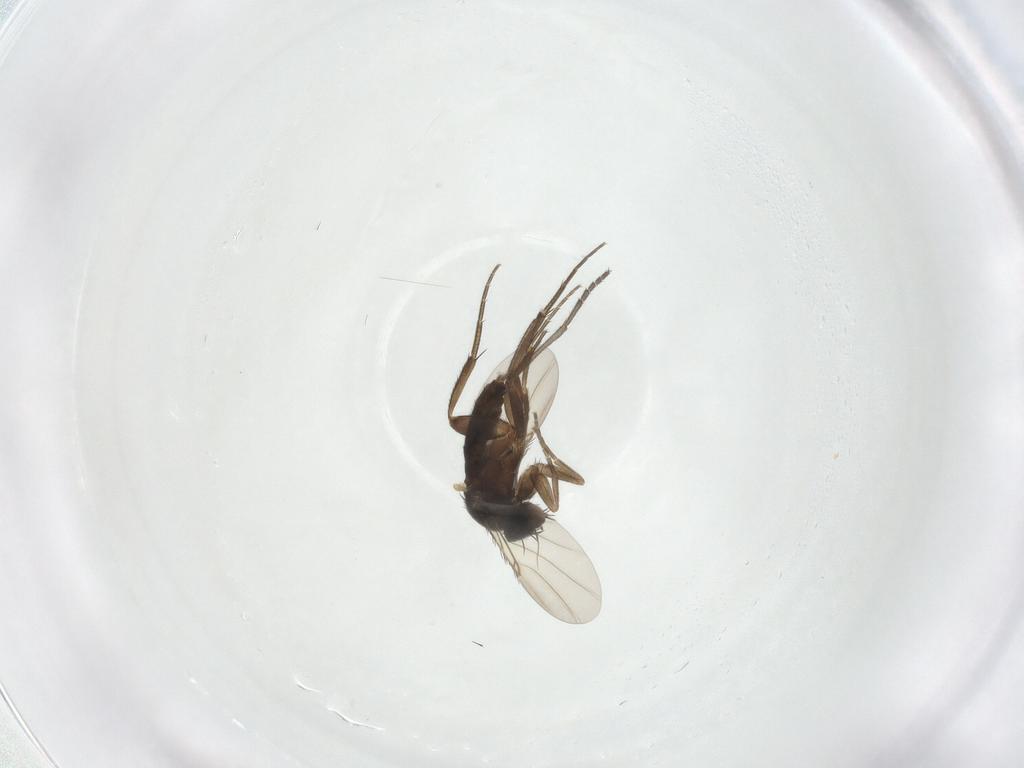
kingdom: Animalia
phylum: Arthropoda
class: Insecta
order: Diptera
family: Phoridae
